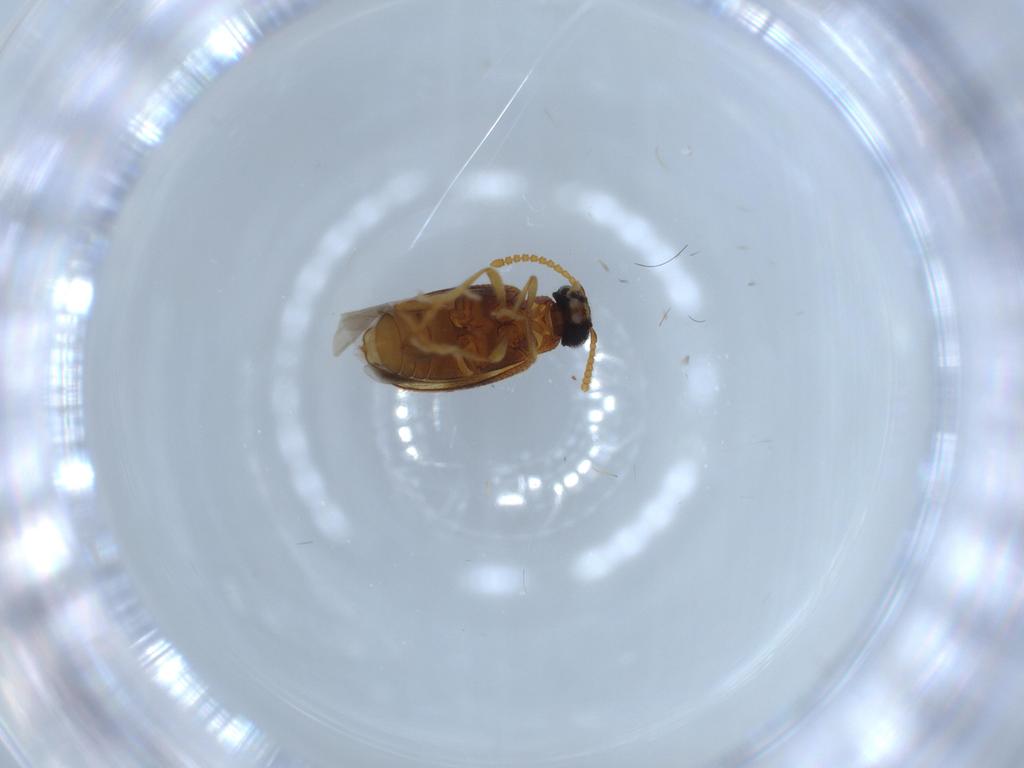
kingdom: Animalia
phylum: Arthropoda
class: Insecta
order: Coleoptera
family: Aderidae
